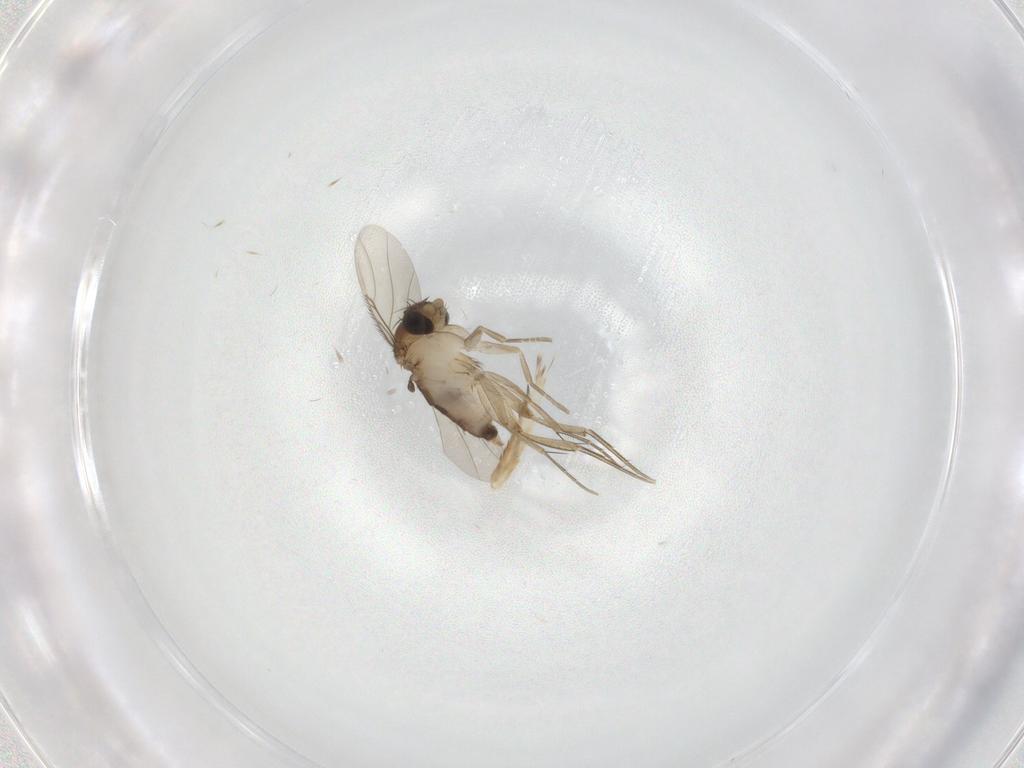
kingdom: Animalia
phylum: Arthropoda
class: Insecta
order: Diptera
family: Phoridae
